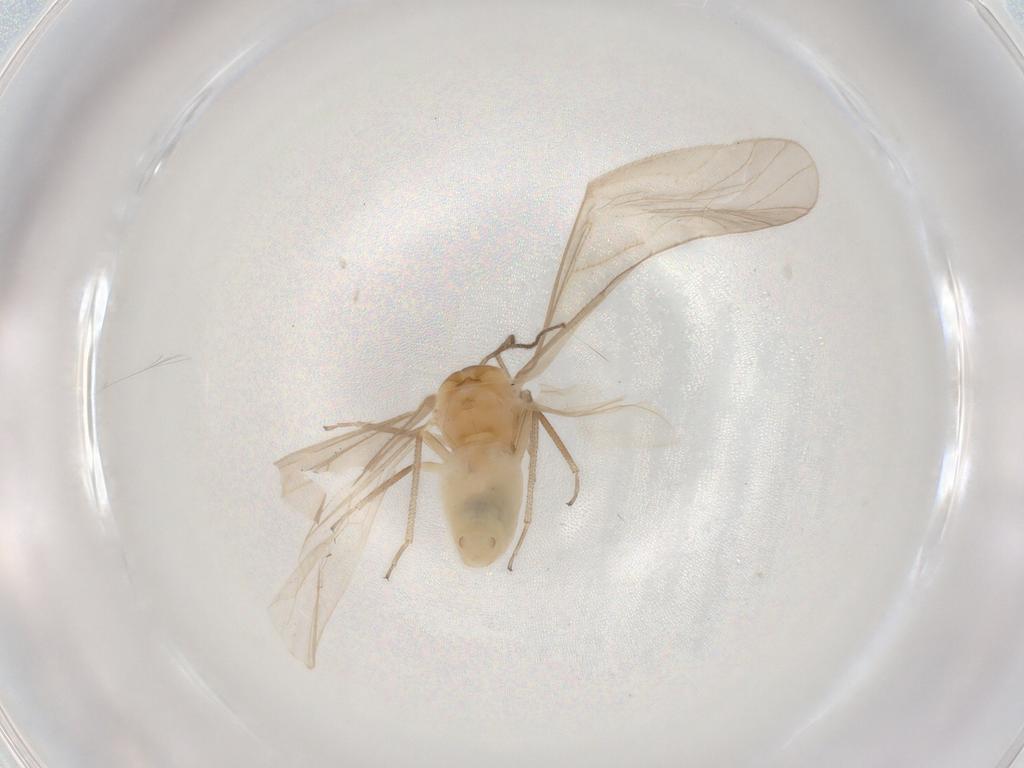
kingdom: Animalia
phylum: Arthropoda
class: Insecta
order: Psocodea
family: Caeciliusidae
